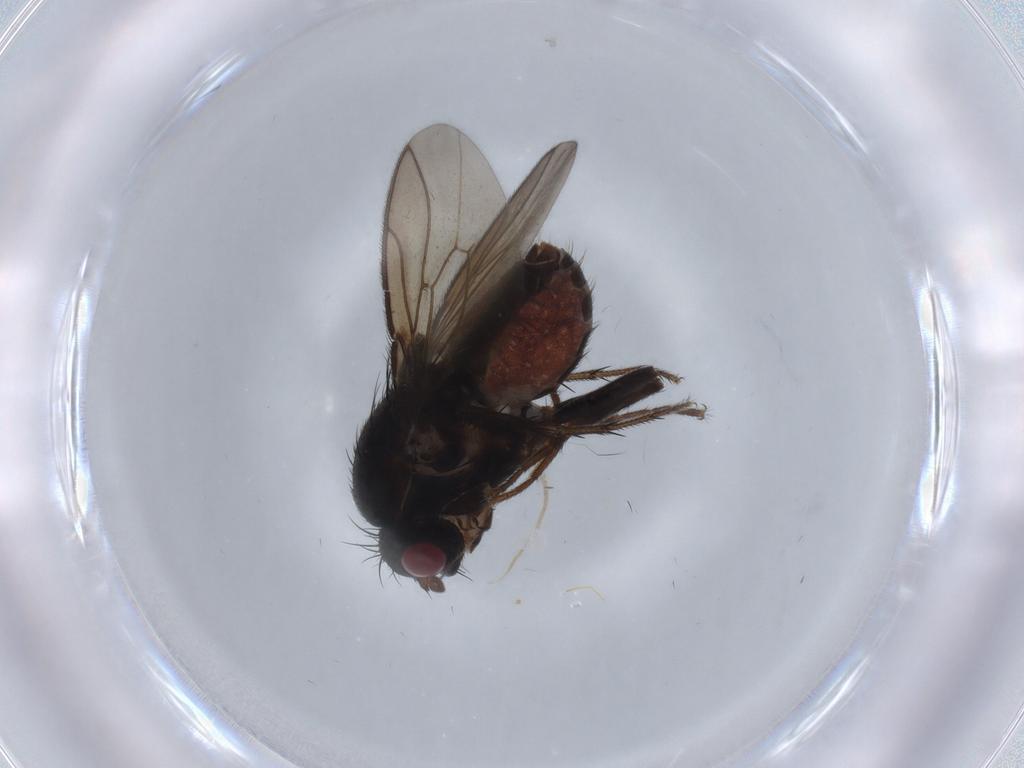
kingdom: Animalia
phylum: Arthropoda
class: Insecta
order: Diptera
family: Sphaeroceridae
